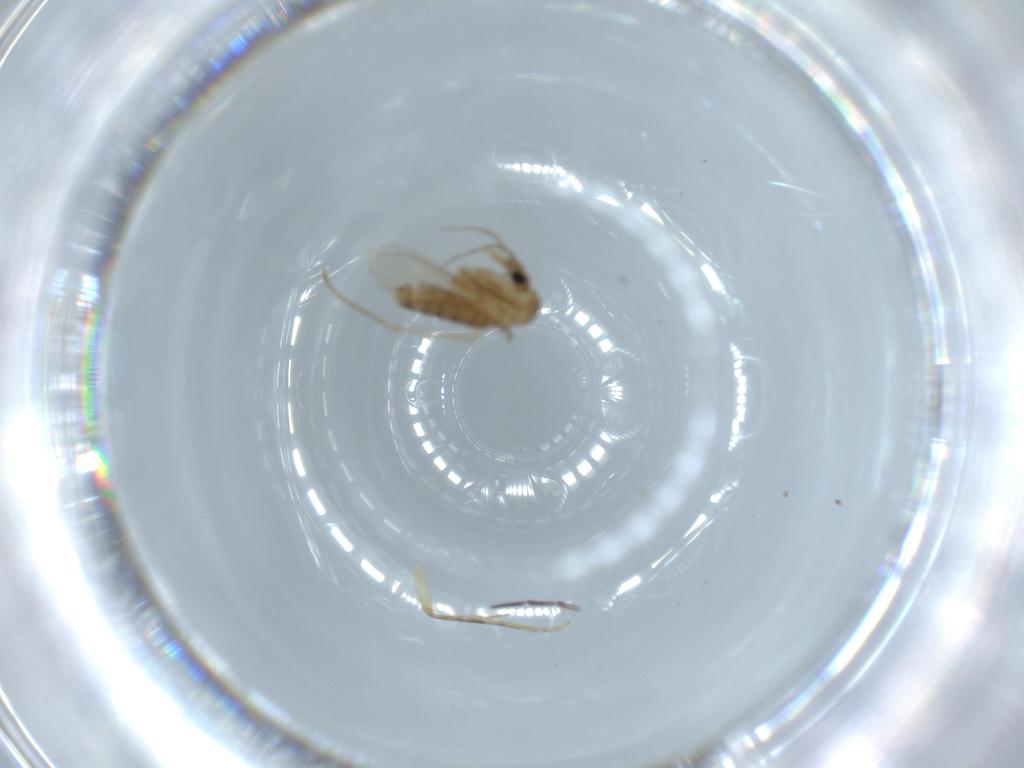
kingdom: Animalia
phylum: Arthropoda
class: Insecta
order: Diptera
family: Psychodidae
